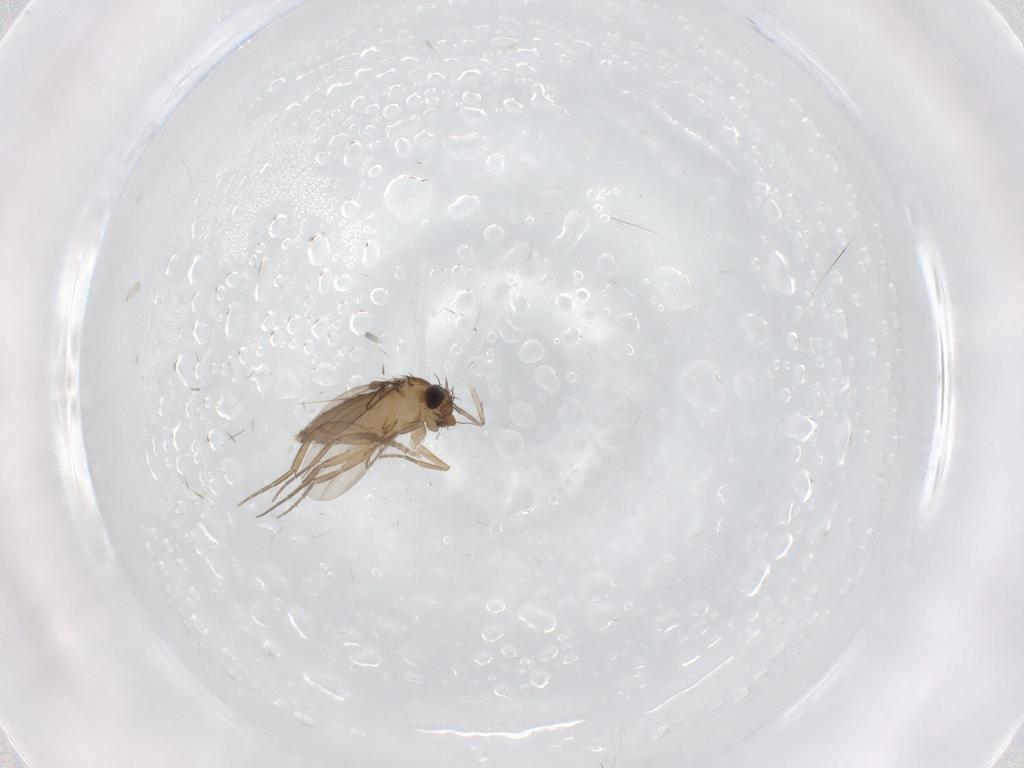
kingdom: Animalia
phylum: Arthropoda
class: Insecta
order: Diptera
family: Phoridae
